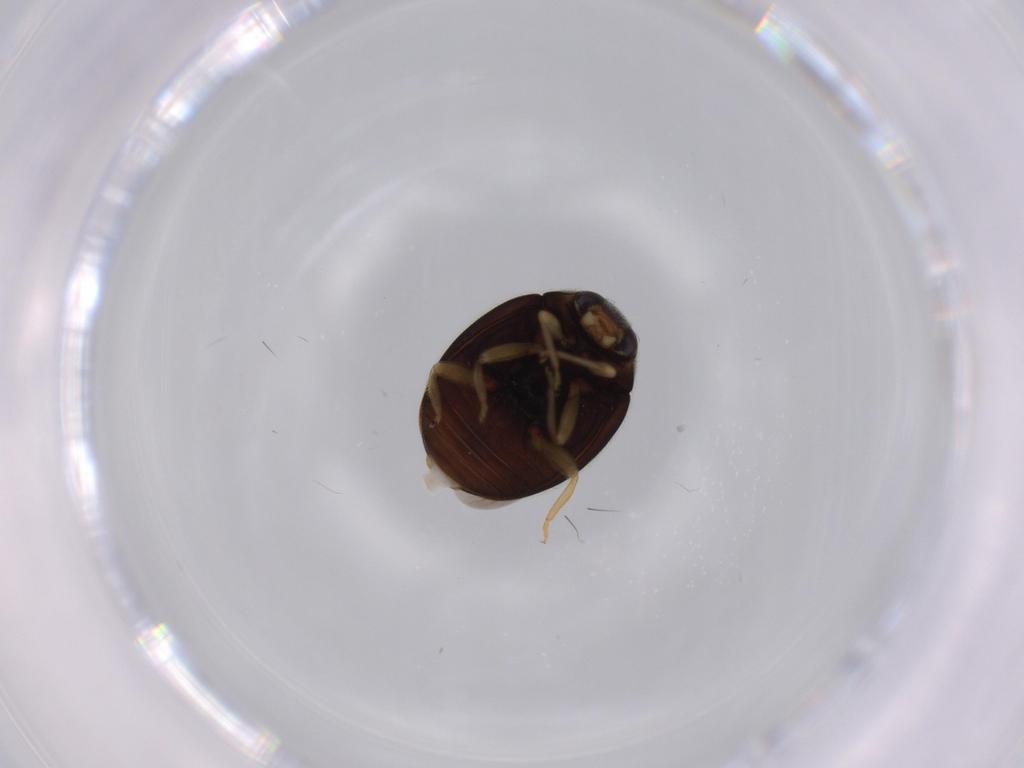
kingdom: Animalia
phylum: Arthropoda
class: Insecta
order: Coleoptera
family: Coccinellidae
